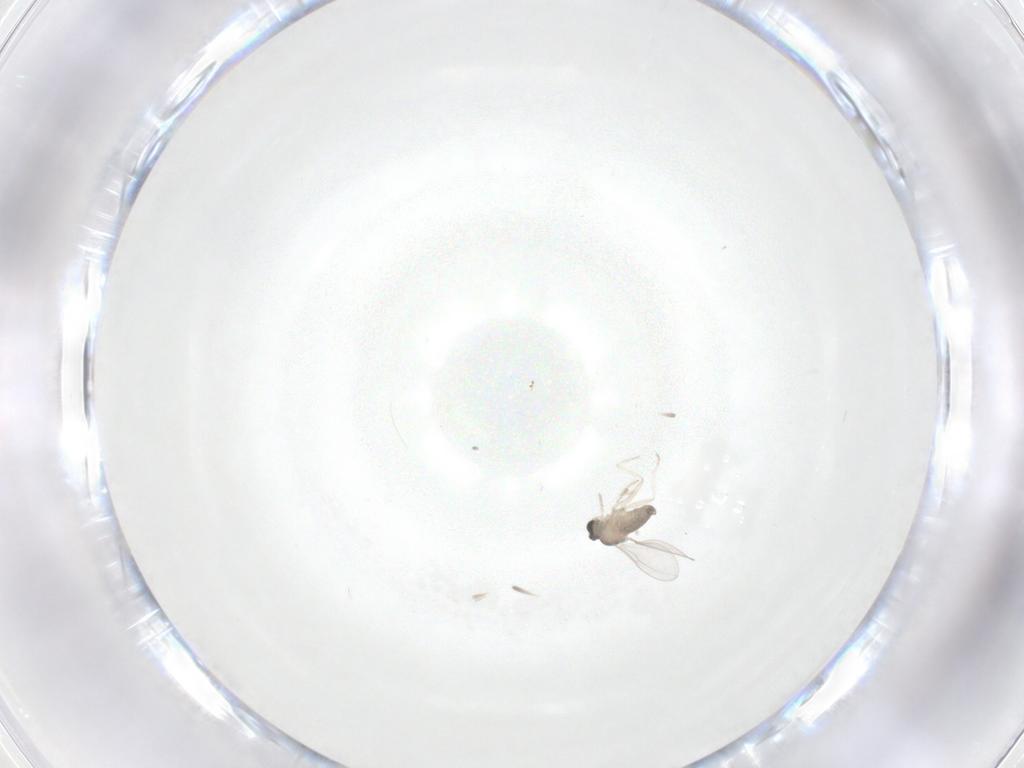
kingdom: Animalia
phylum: Arthropoda
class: Insecta
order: Diptera
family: Cecidomyiidae
